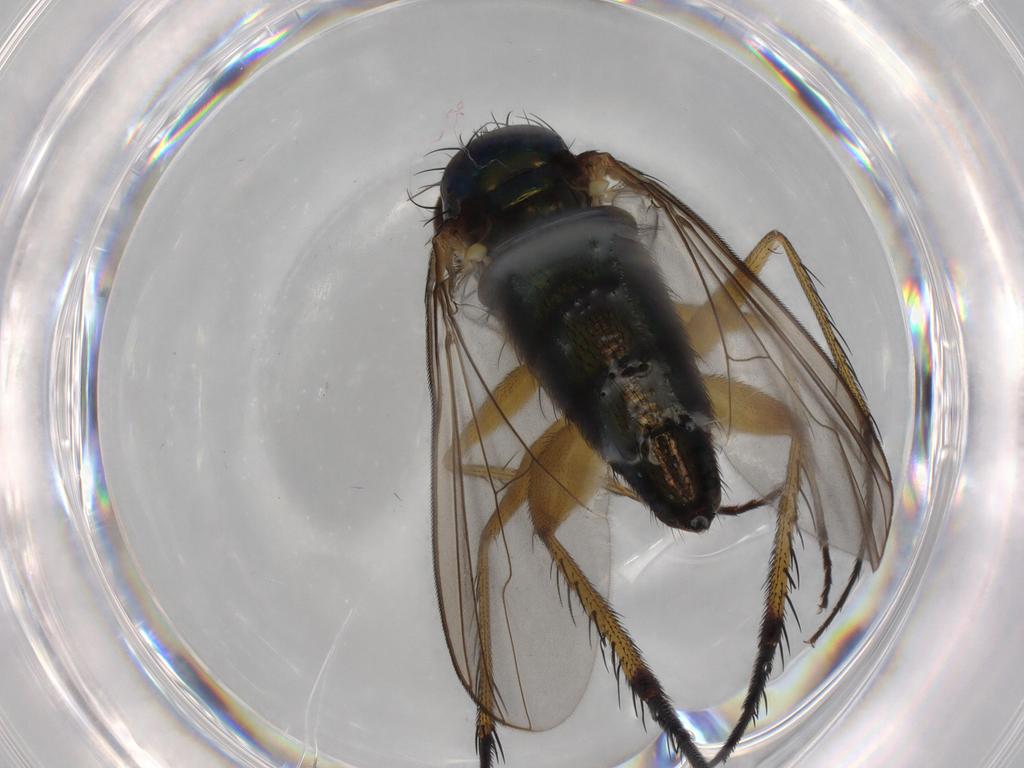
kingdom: Animalia
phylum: Arthropoda
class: Insecta
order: Diptera
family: Dolichopodidae
